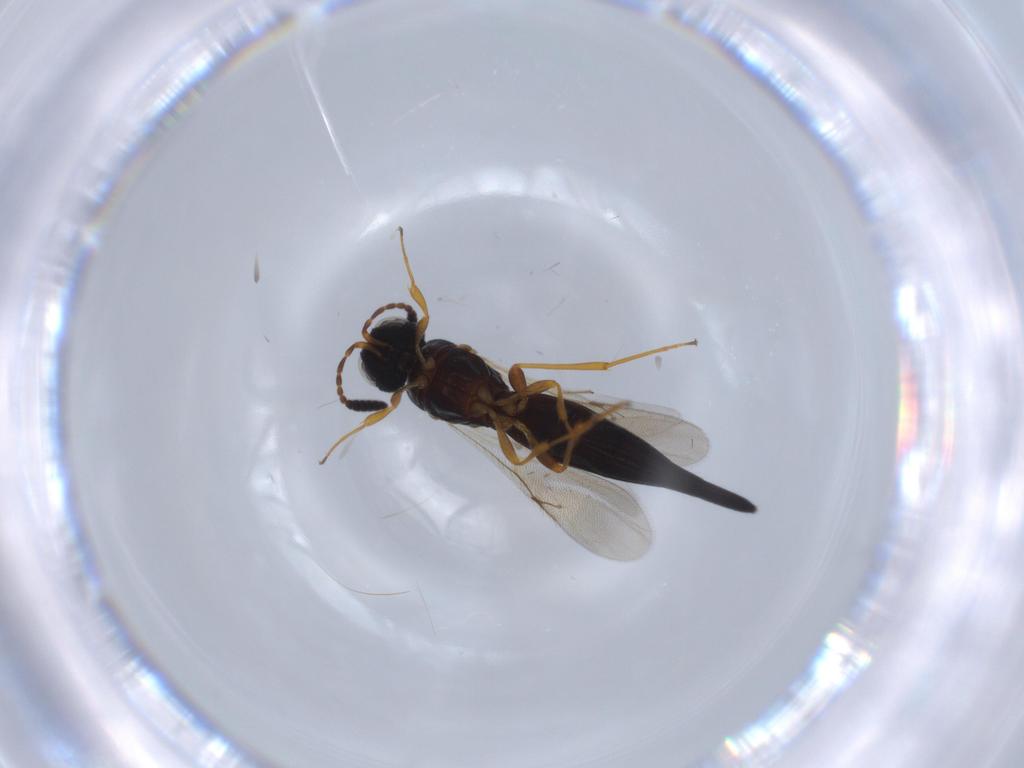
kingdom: Animalia
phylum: Arthropoda
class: Insecta
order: Hymenoptera
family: Scelionidae
